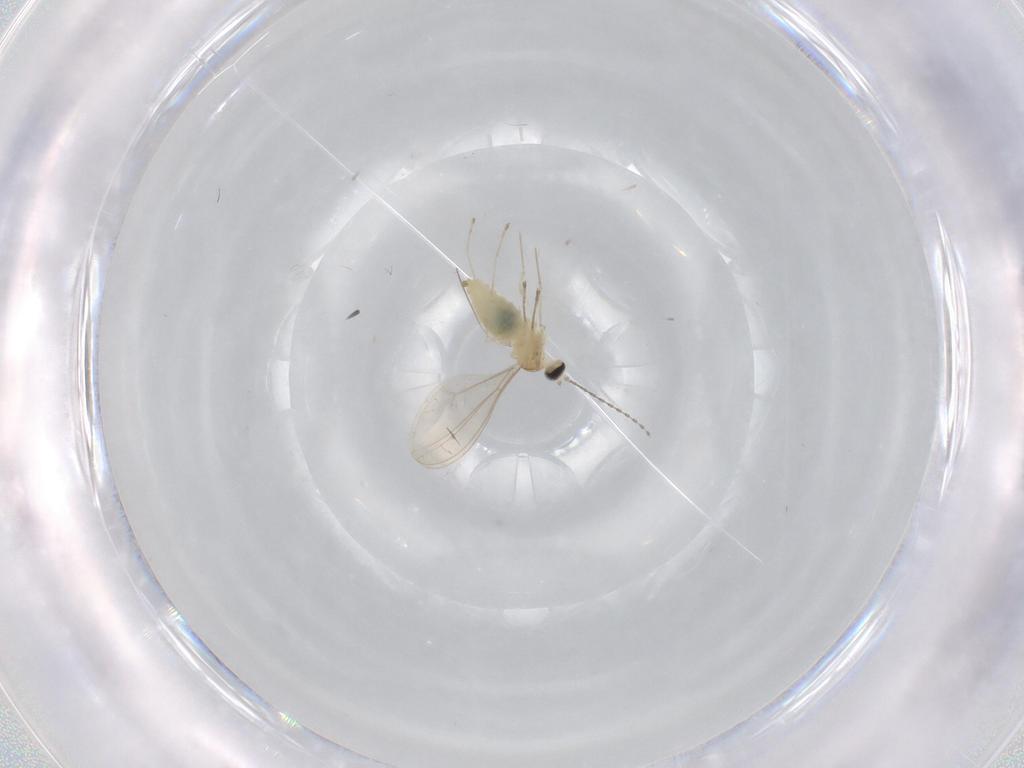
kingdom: Animalia
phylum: Arthropoda
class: Insecta
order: Diptera
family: Cecidomyiidae
